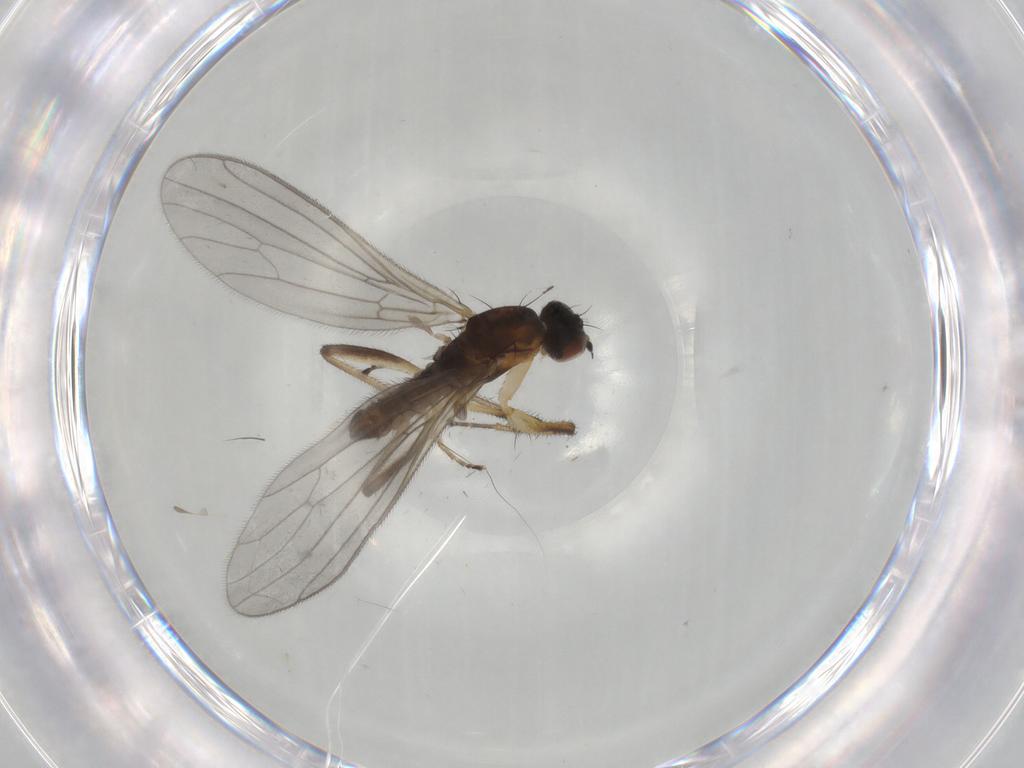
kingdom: Animalia
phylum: Arthropoda
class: Insecta
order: Diptera
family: Empididae
